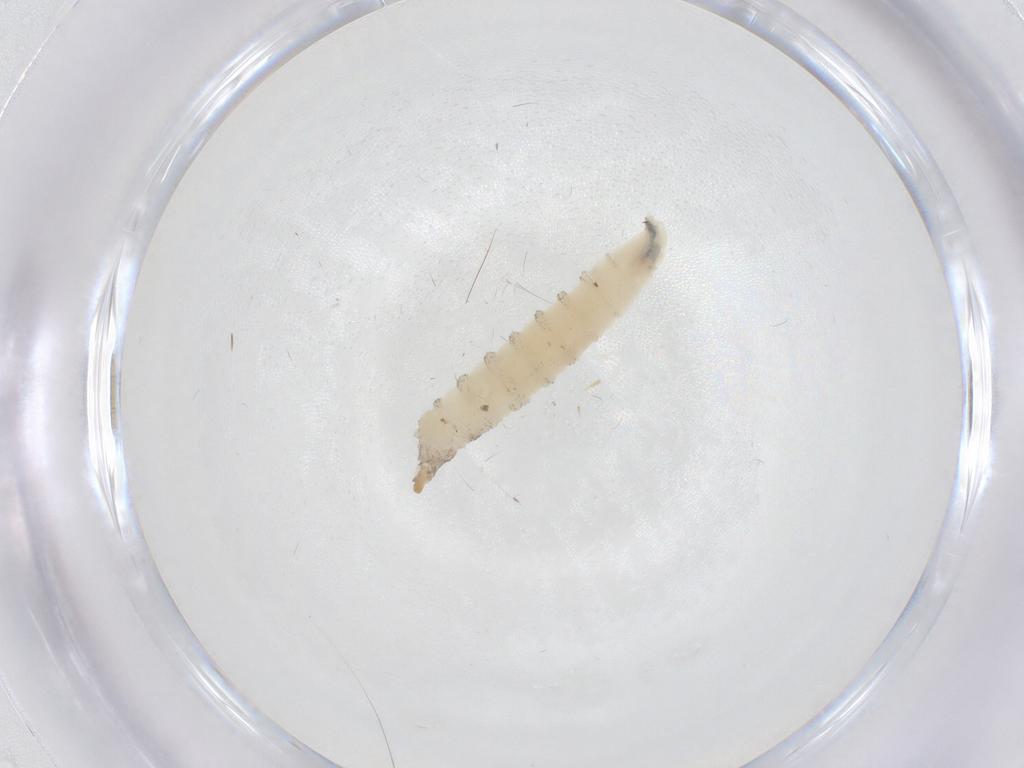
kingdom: Animalia
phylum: Arthropoda
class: Insecta
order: Diptera
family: Drosophilidae
